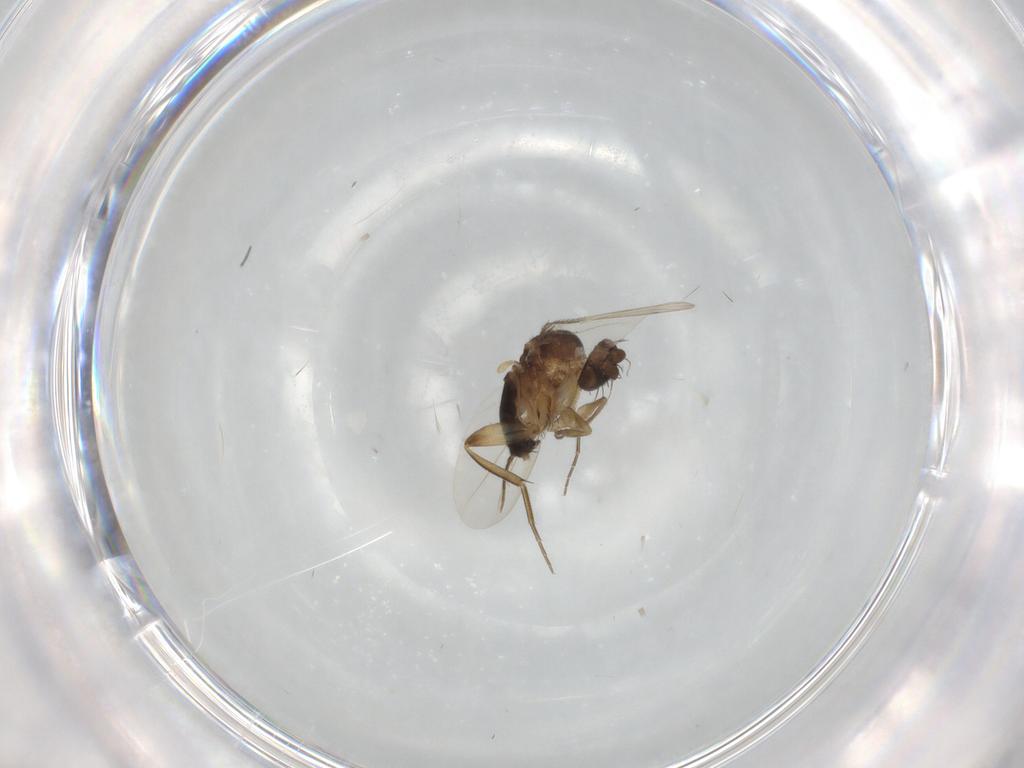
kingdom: Animalia
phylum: Arthropoda
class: Insecta
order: Diptera
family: Phoridae
